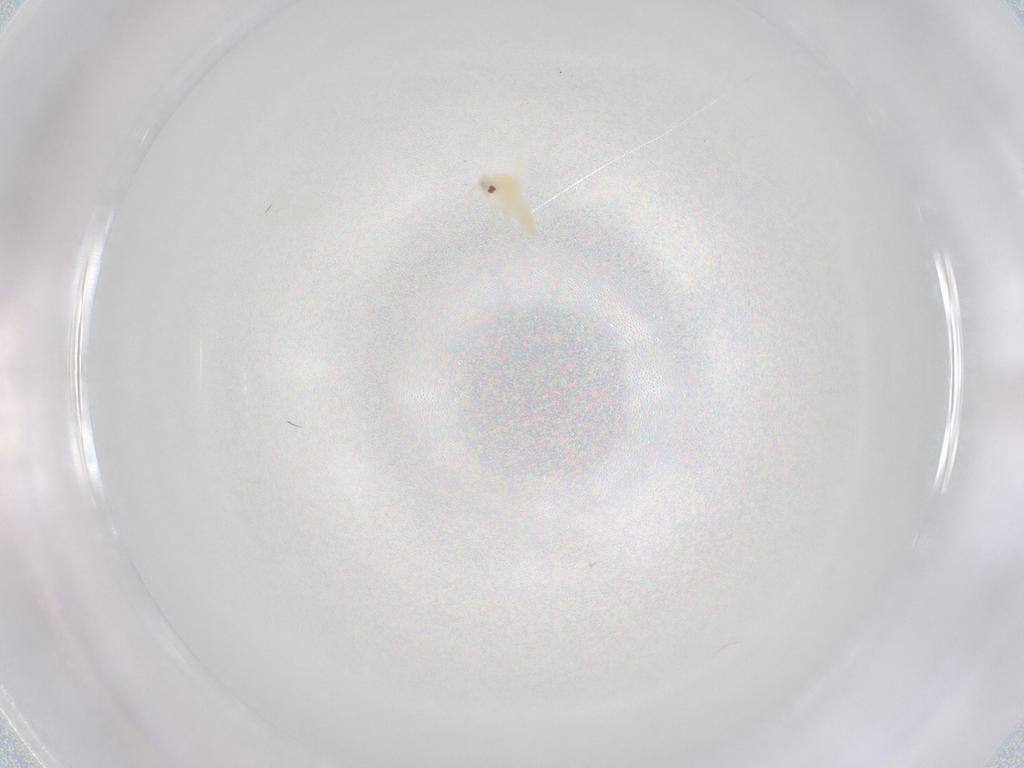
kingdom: Animalia
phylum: Arthropoda
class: Insecta
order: Hemiptera
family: Aleyrodidae
